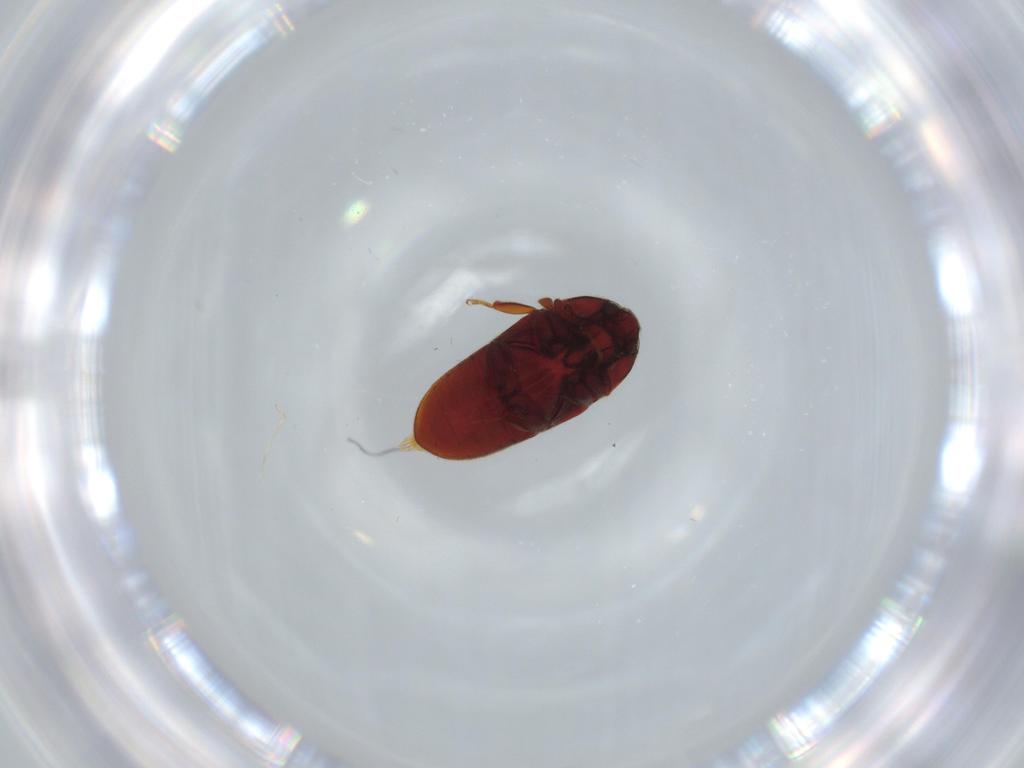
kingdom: Animalia
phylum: Arthropoda
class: Insecta
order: Coleoptera
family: Throscidae
